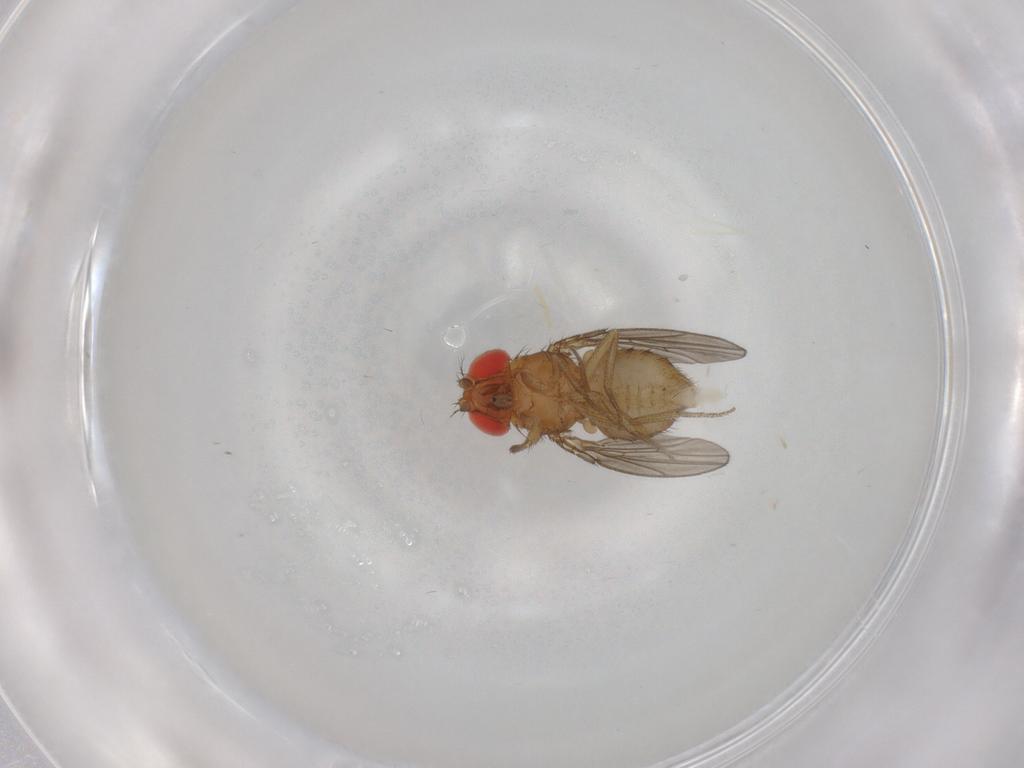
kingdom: Animalia
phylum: Arthropoda
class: Insecta
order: Diptera
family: Drosophilidae
